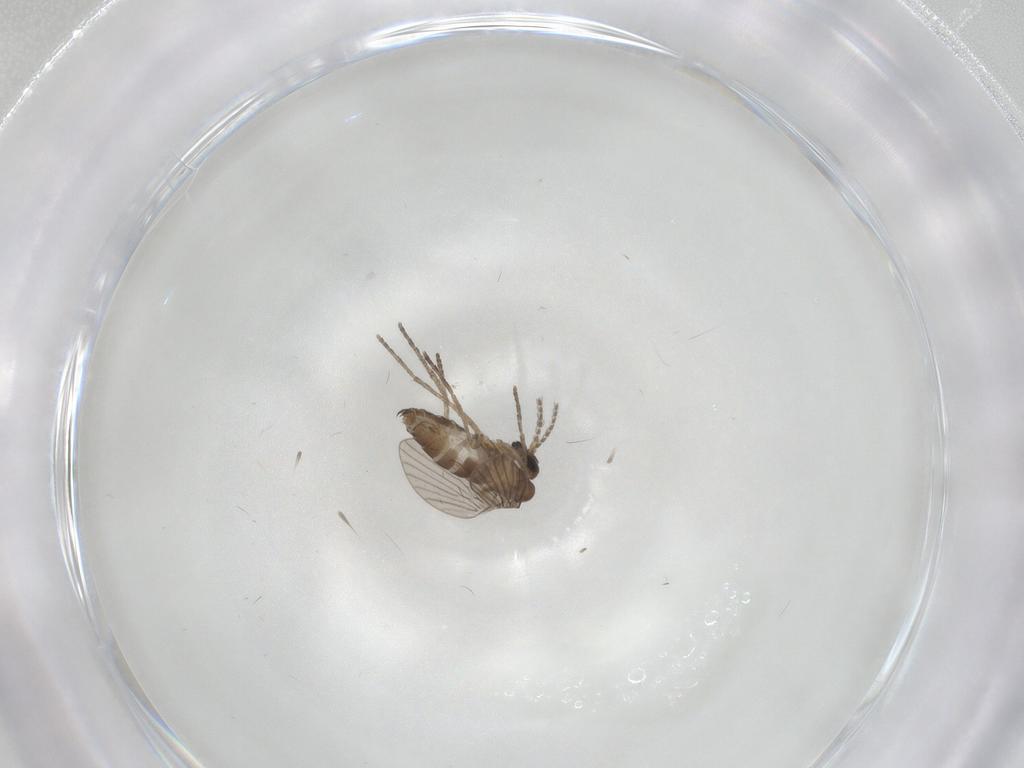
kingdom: Animalia
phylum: Arthropoda
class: Insecta
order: Diptera
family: Psychodidae
